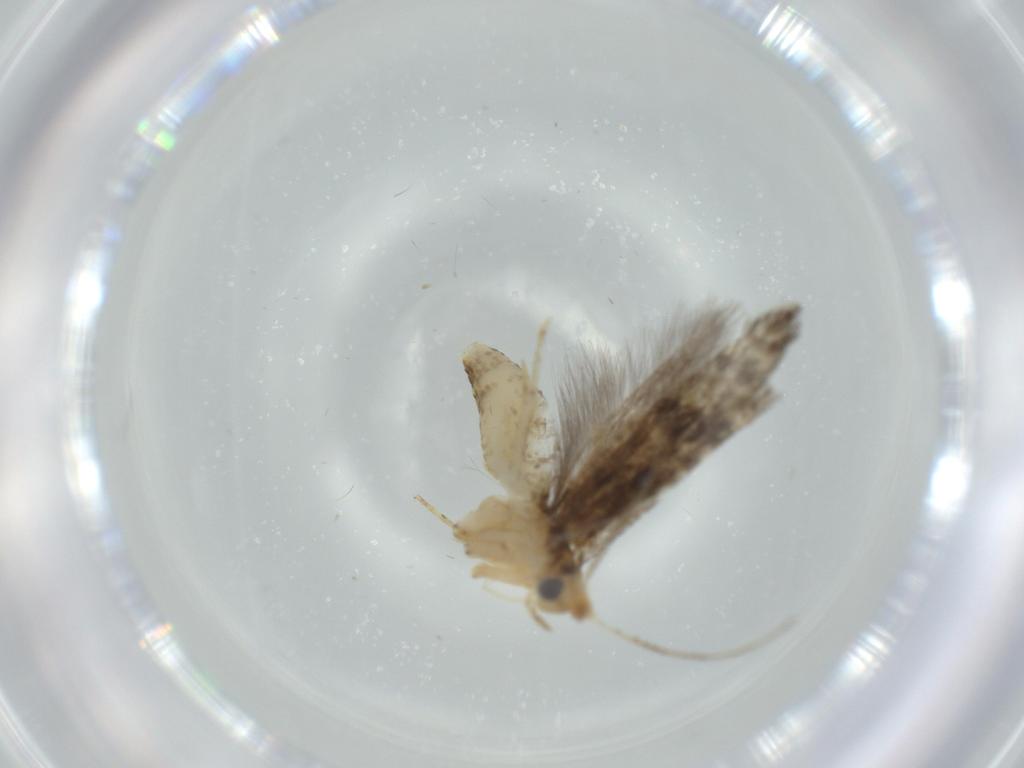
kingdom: Animalia
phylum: Arthropoda
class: Insecta
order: Lepidoptera
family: Argyresthiidae
